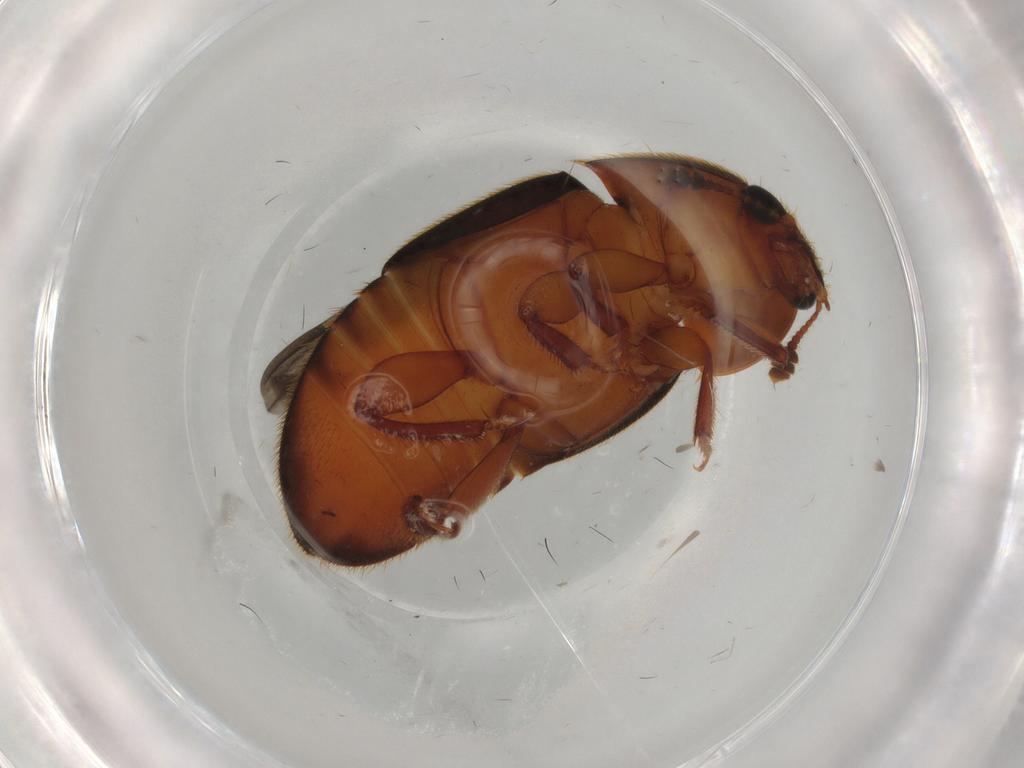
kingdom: Animalia
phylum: Arthropoda
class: Insecta
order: Coleoptera
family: Nitidulidae
